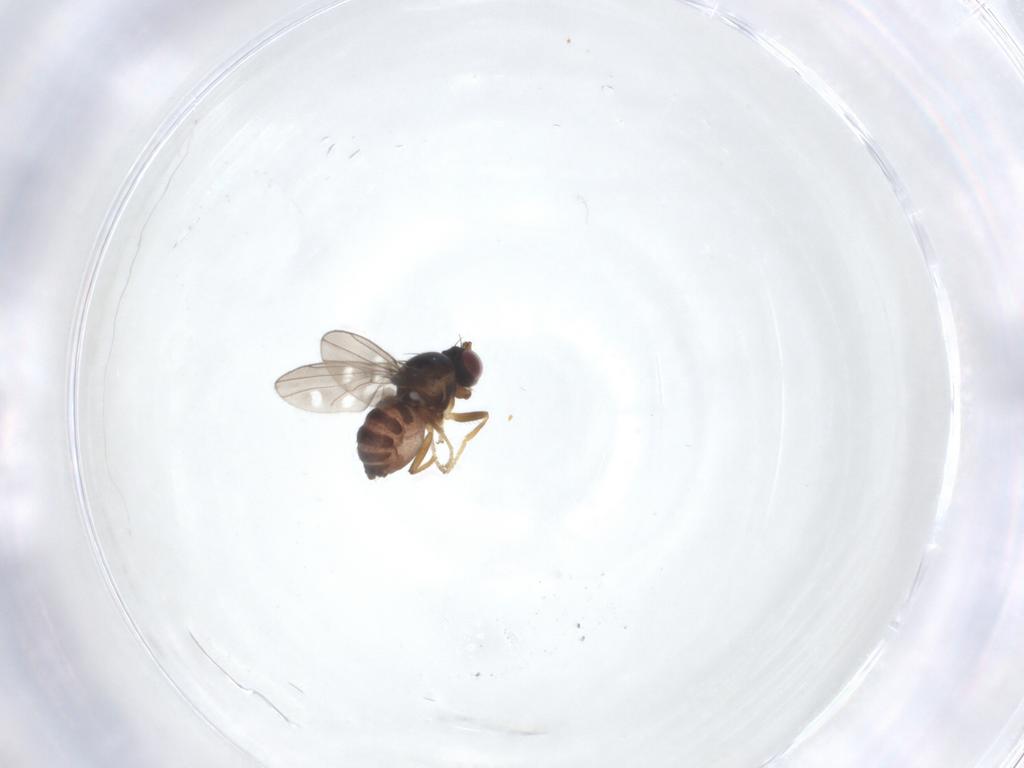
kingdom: Animalia
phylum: Arthropoda
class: Insecta
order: Diptera
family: Ephydridae
